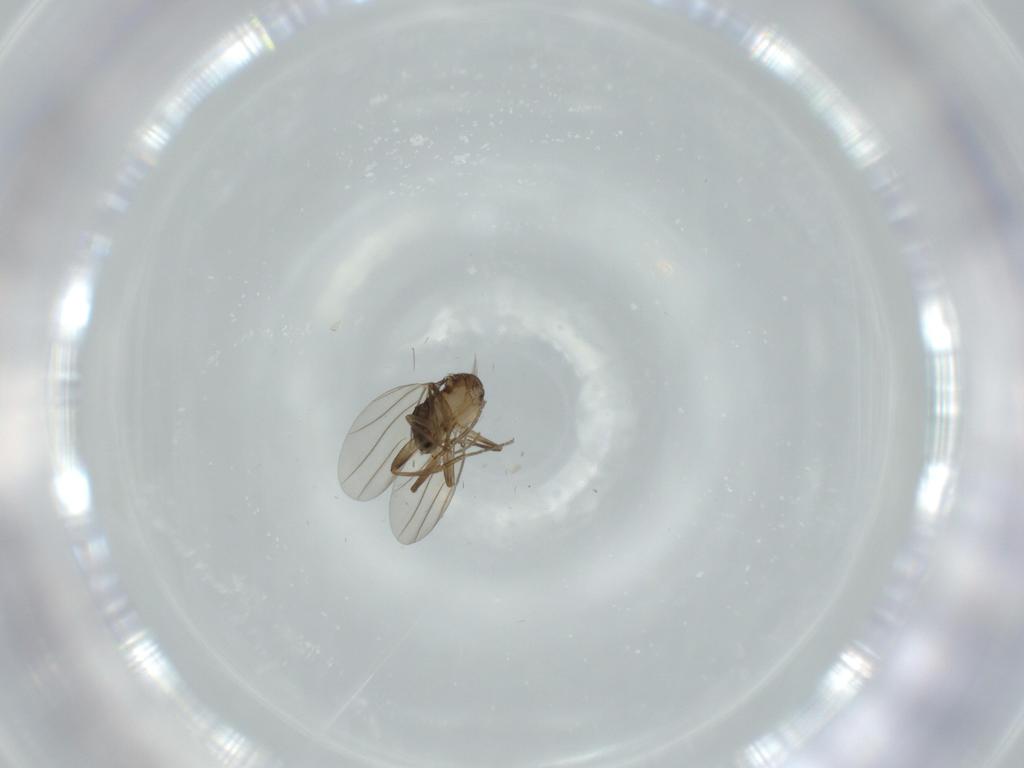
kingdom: Animalia
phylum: Arthropoda
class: Insecta
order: Diptera
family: Phoridae
